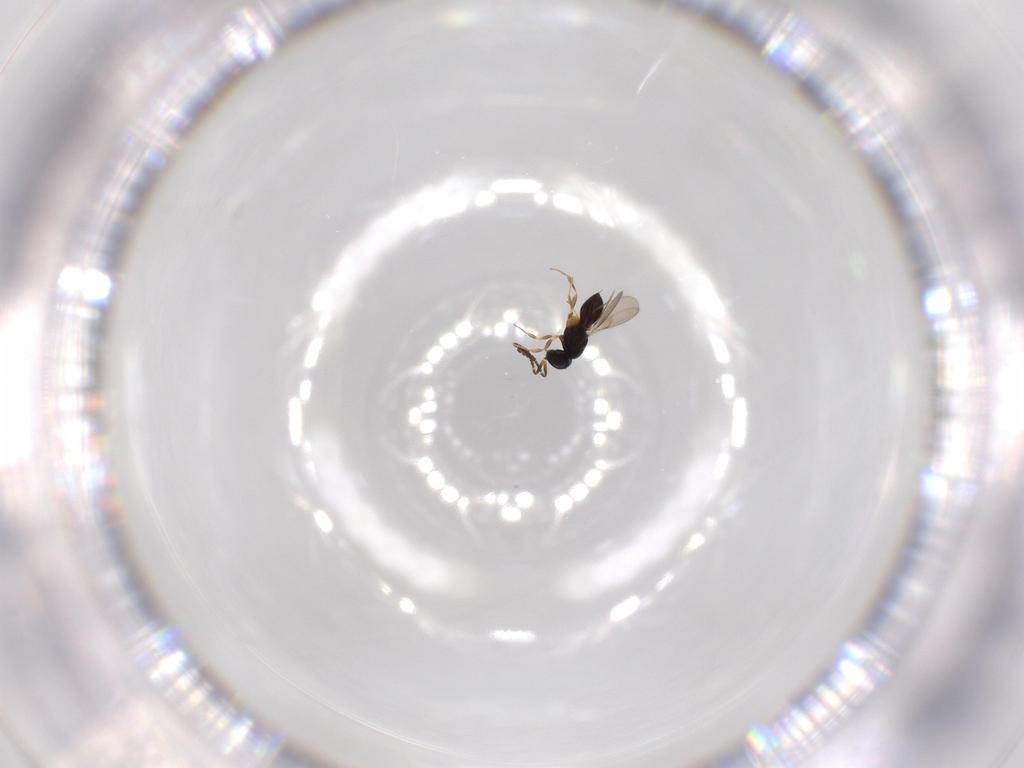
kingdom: Animalia
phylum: Arthropoda
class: Insecta
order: Hymenoptera
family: Scelionidae
